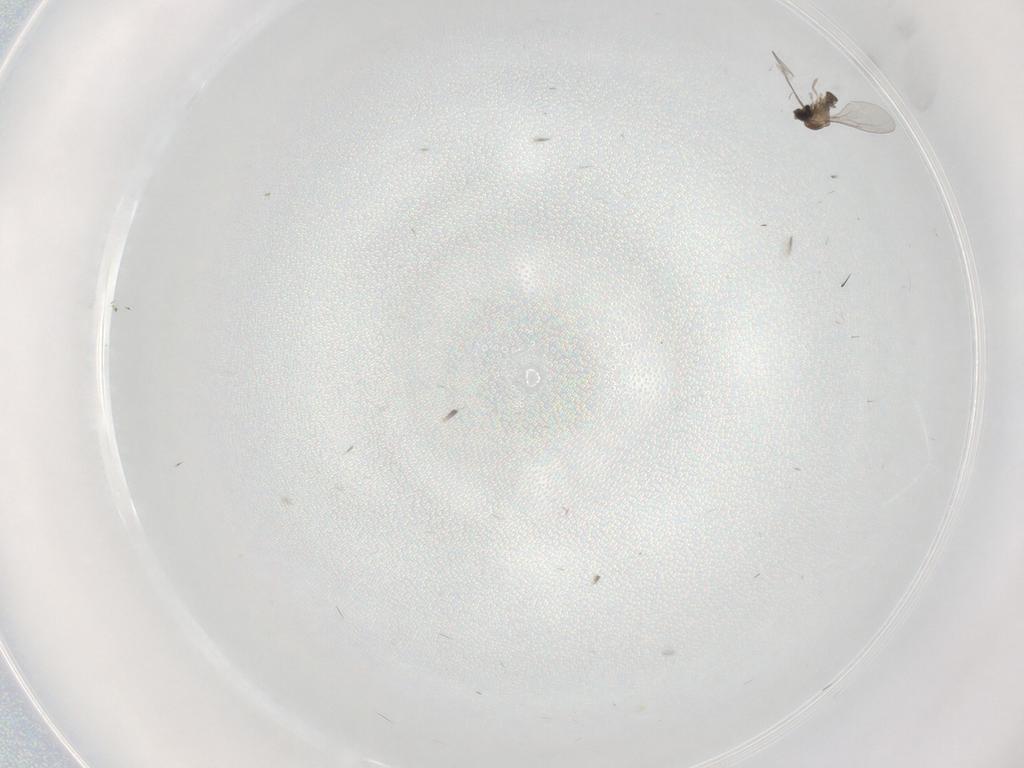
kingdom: Animalia
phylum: Arthropoda
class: Insecta
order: Diptera
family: Cecidomyiidae
